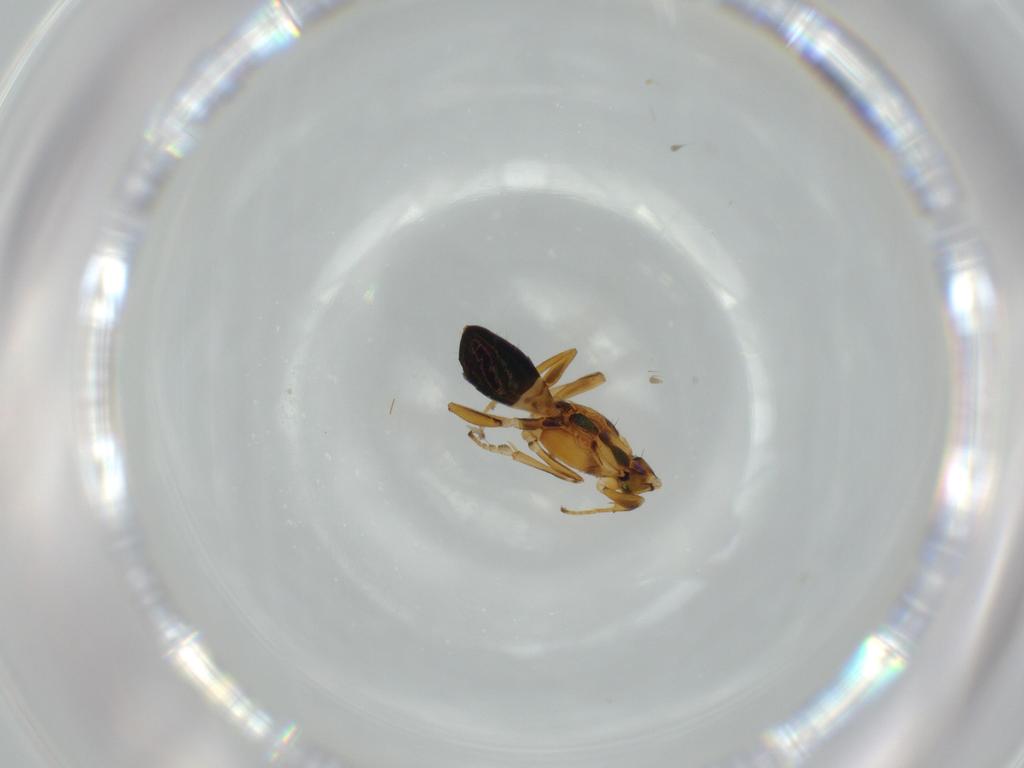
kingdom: Animalia
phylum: Arthropoda
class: Insecta
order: Hymenoptera
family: Eupelmidae
